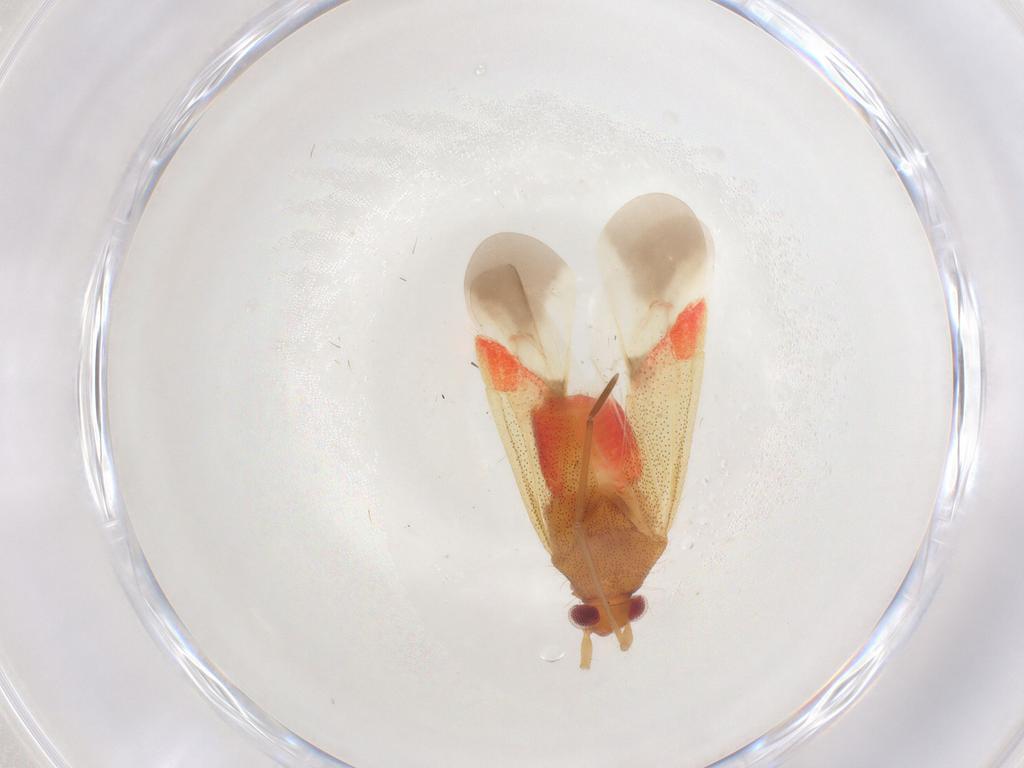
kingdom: Animalia
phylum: Arthropoda
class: Insecta
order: Hemiptera
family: Miridae
